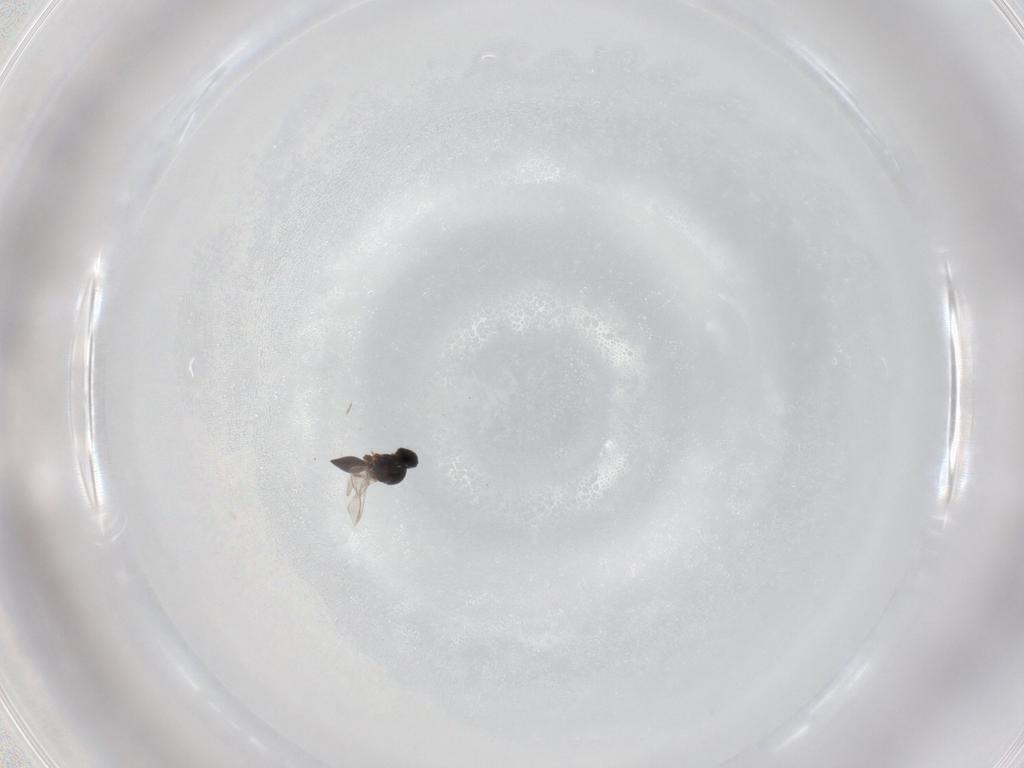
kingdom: Animalia
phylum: Arthropoda
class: Insecta
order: Hymenoptera
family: Platygastridae
